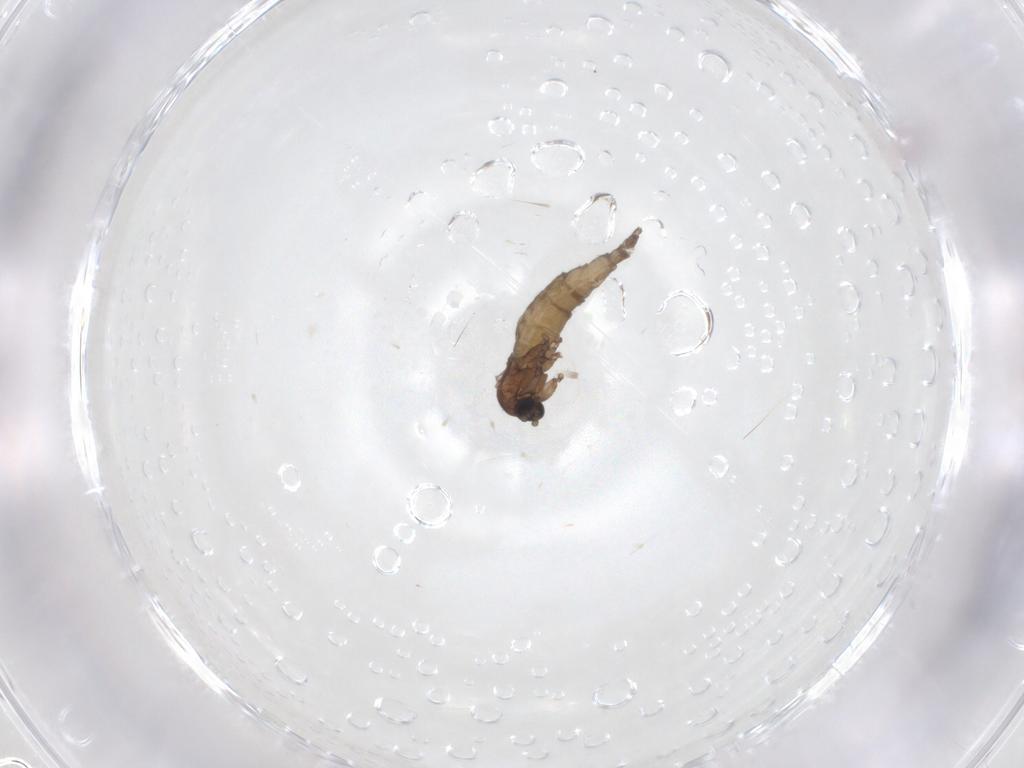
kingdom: Animalia
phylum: Arthropoda
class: Insecta
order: Diptera
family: Sciaridae
